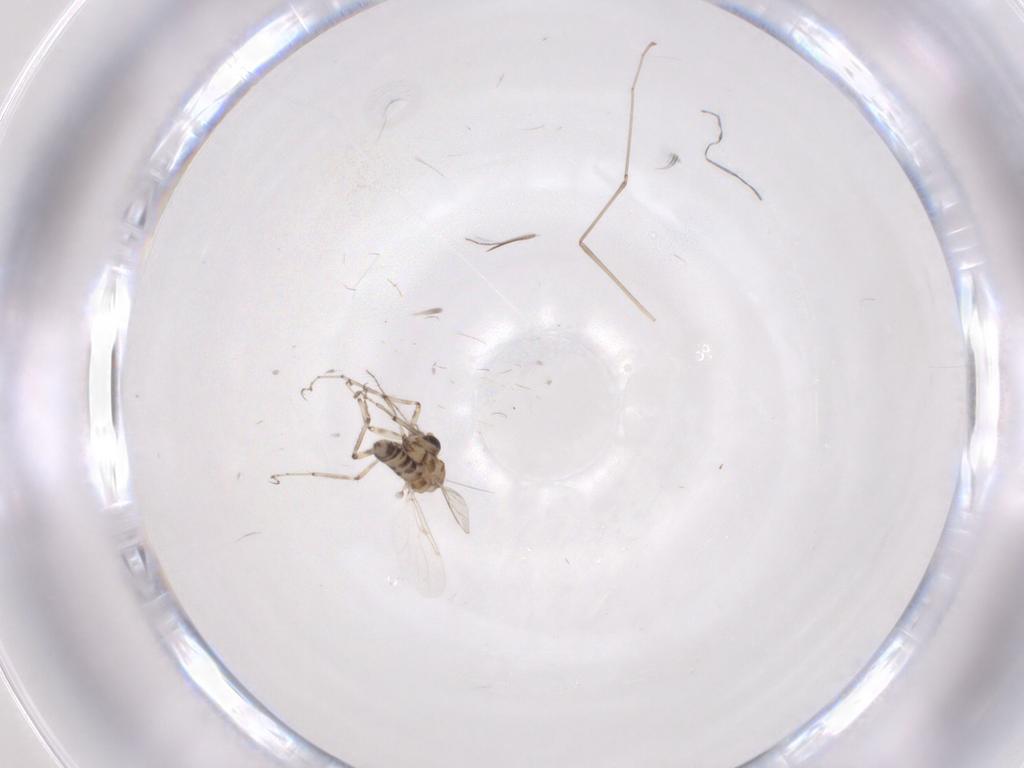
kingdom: Animalia
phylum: Arthropoda
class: Insecta
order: Diptera
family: Ceratopogonidae
